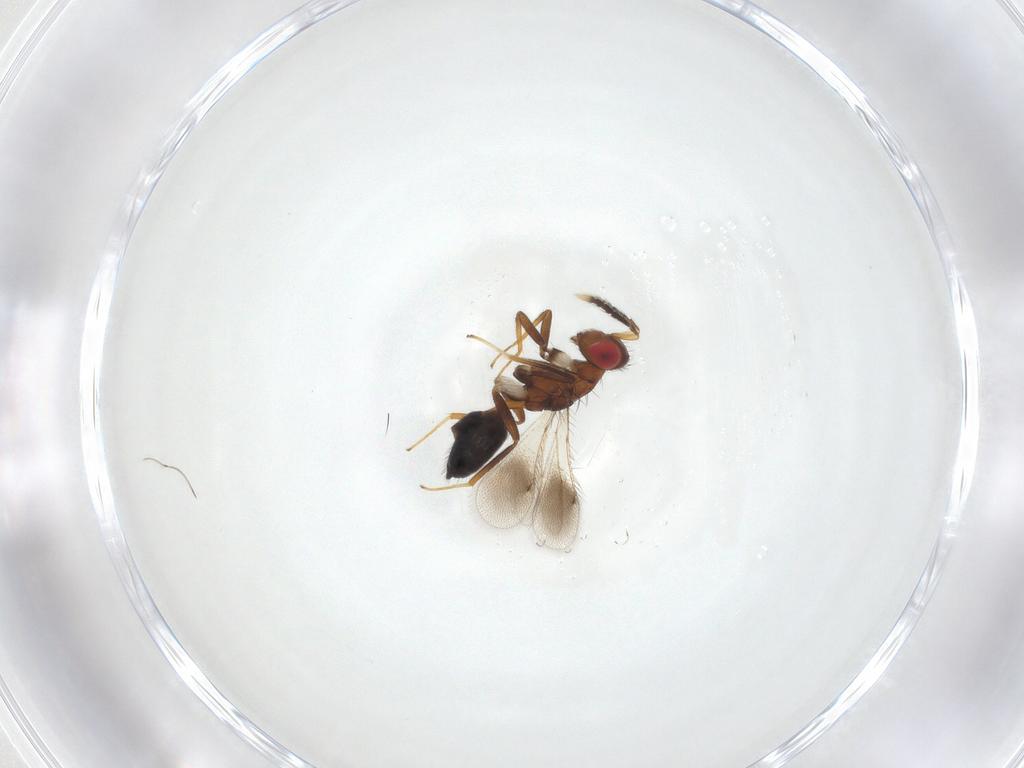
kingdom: Animalia
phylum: Arthropoda
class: Insecta
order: Hymenoptera
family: Eulophidae
